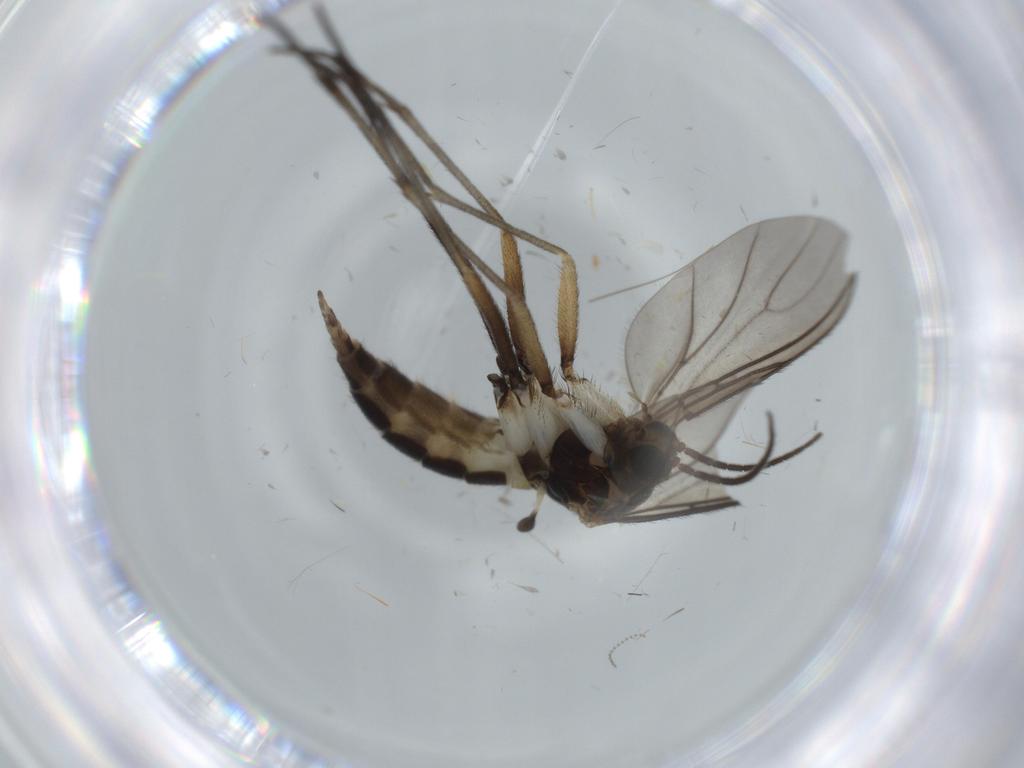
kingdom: Animalia
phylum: Arthropoda
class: Insecta
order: Diptera
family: Sciaridae
